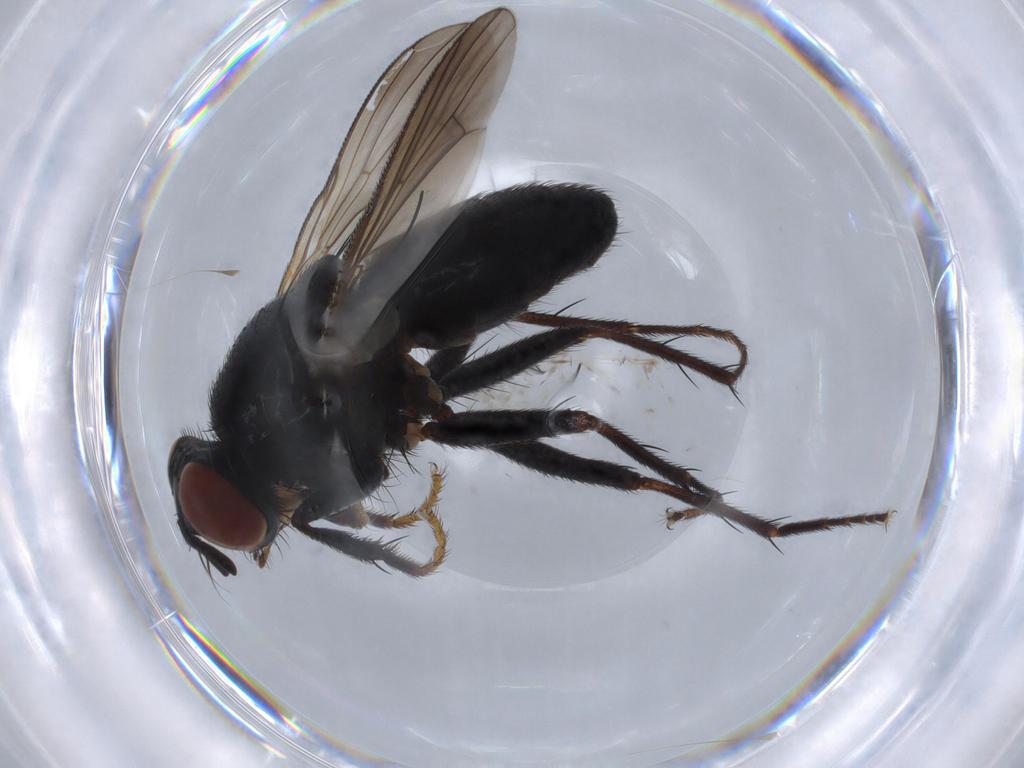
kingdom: Animalia
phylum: Arthropoda
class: Insecta
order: Diptera
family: Muscidae
